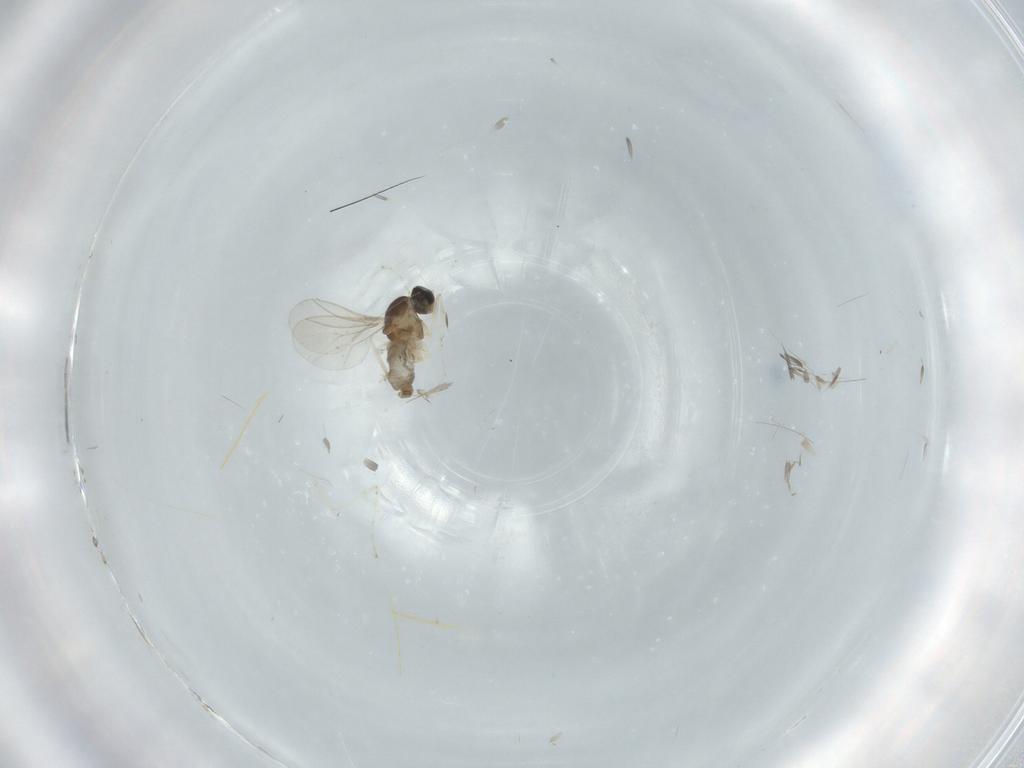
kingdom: Animalia
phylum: Arthropoda
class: Insecta
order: Diptera
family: Cecidomyiidae
